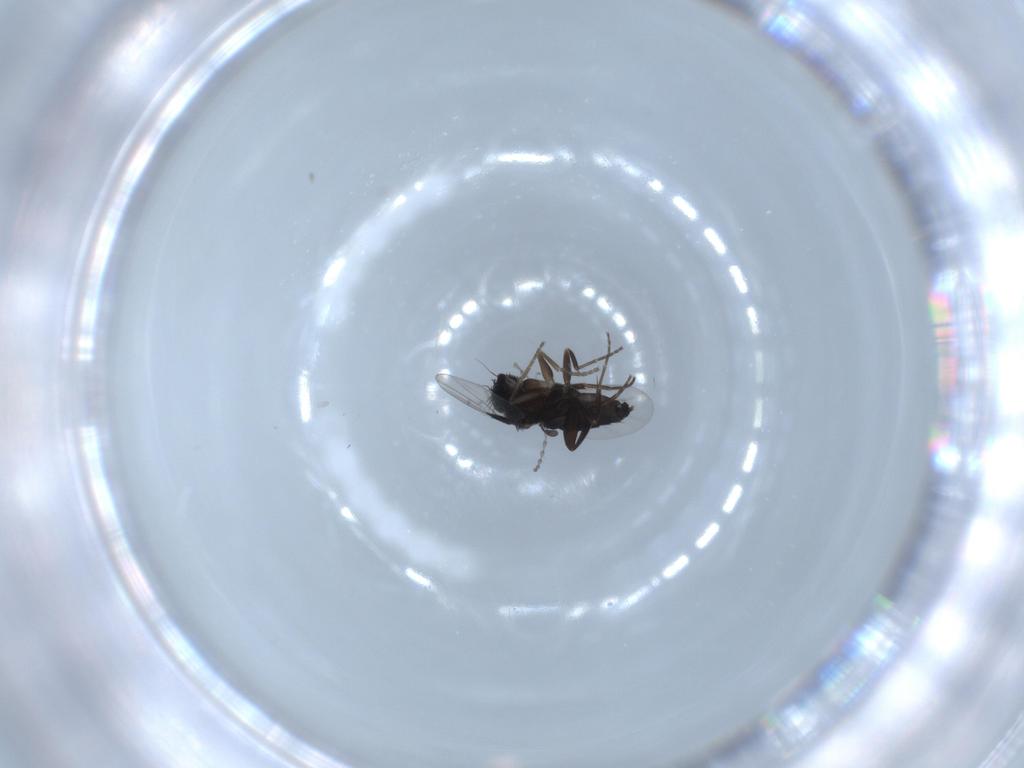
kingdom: Animalia
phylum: Arthropoda
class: Insecta
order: Diptera
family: Phoridae
